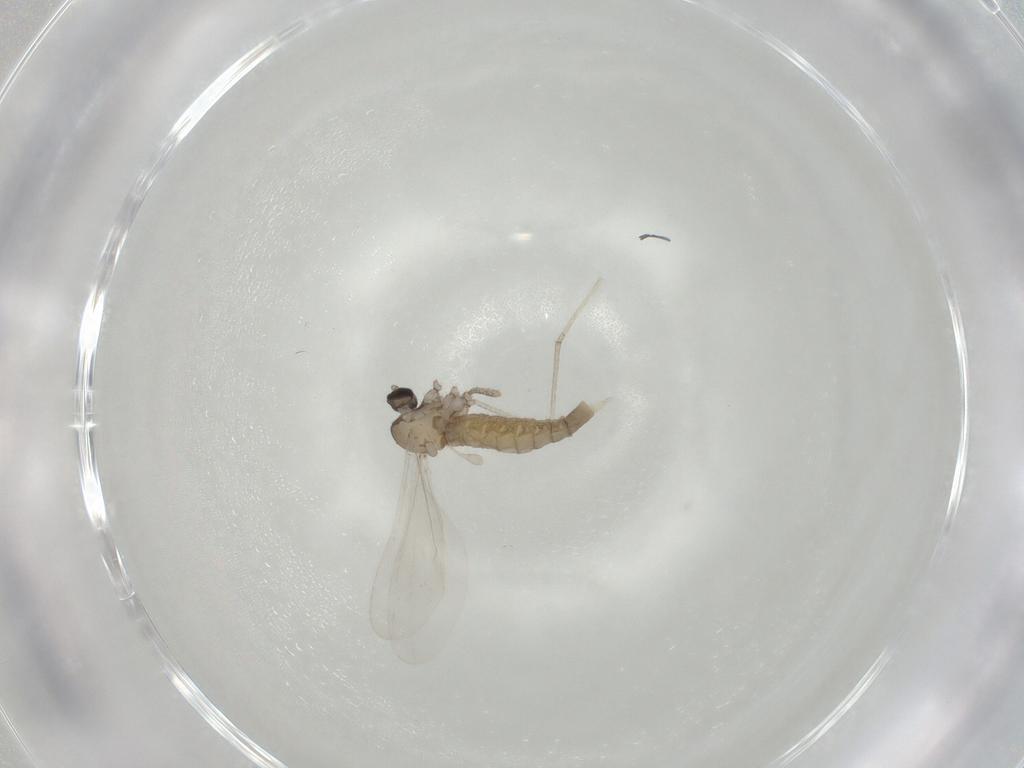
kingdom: Animalia
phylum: Arthropoda
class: Insecta
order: Diptera
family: Cecidomyiidae
